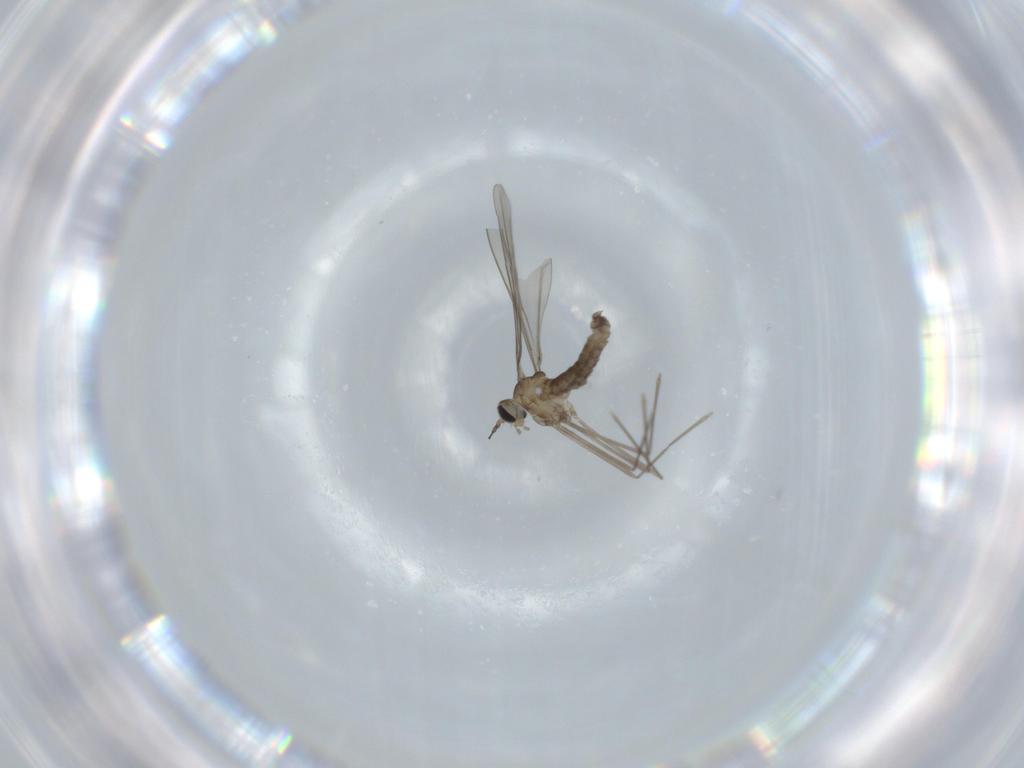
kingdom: Animalia
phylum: Arthropoda
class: Insecta
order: Diptera
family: Cecidomyiidae
